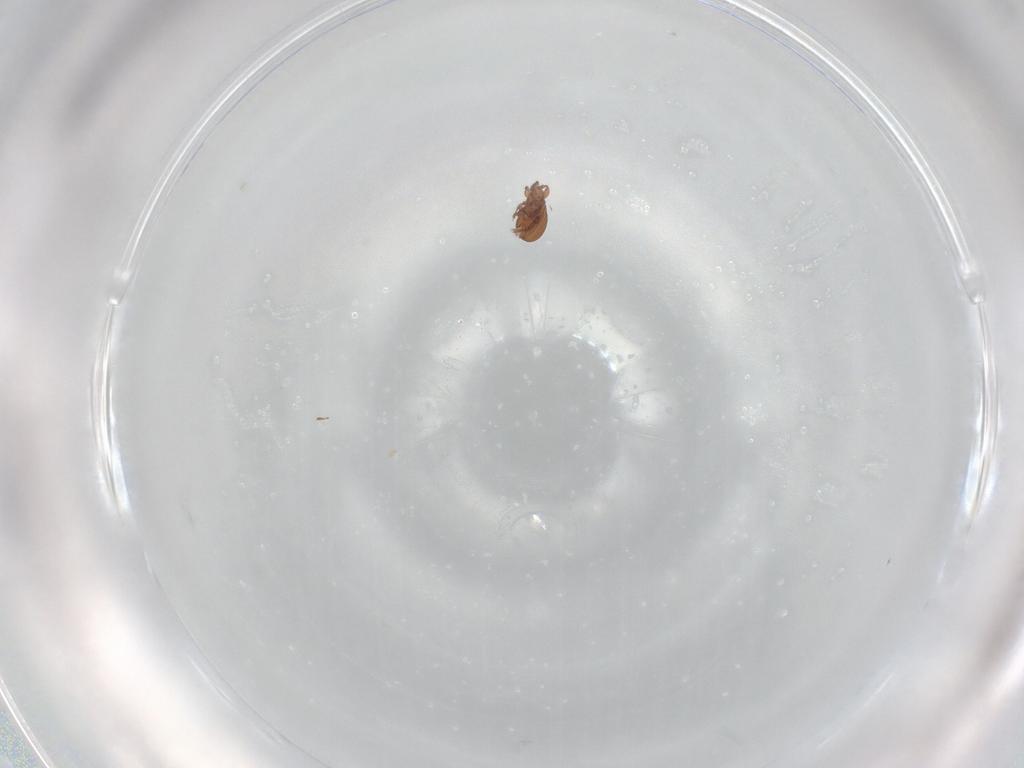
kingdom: Animalia
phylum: Arthropoda
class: Arachnida
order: Sarcoptiformes
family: Eremaeidae
